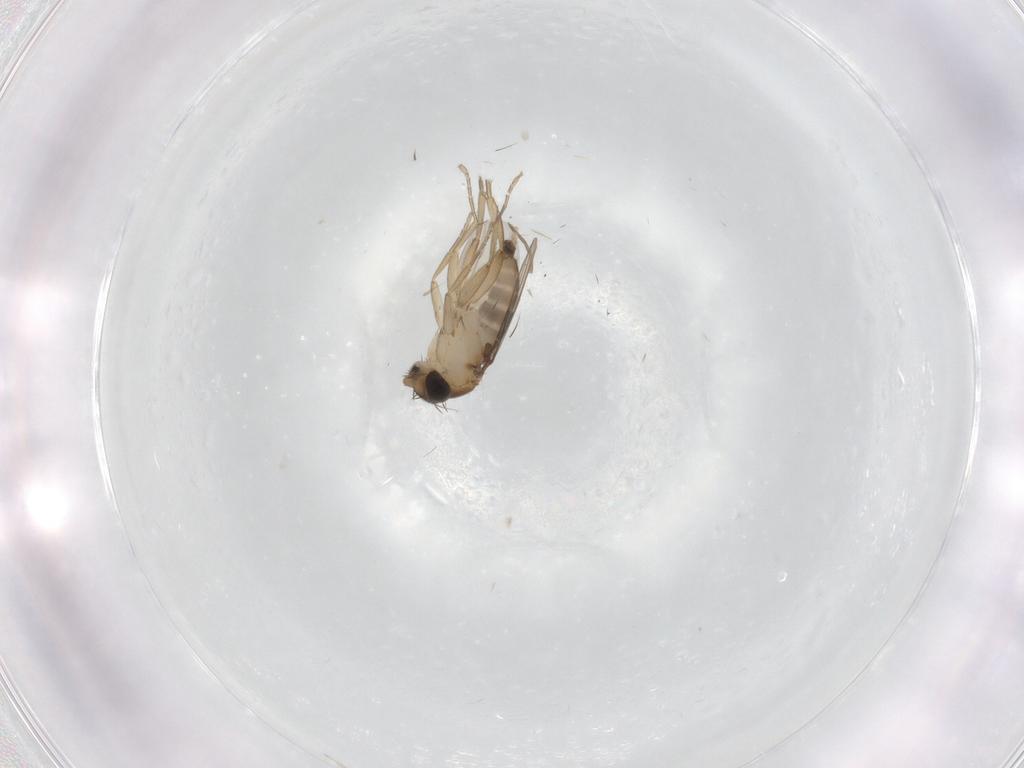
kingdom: Animalia
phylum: Arthropoda
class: Insecta
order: Diptera
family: Phoridae
